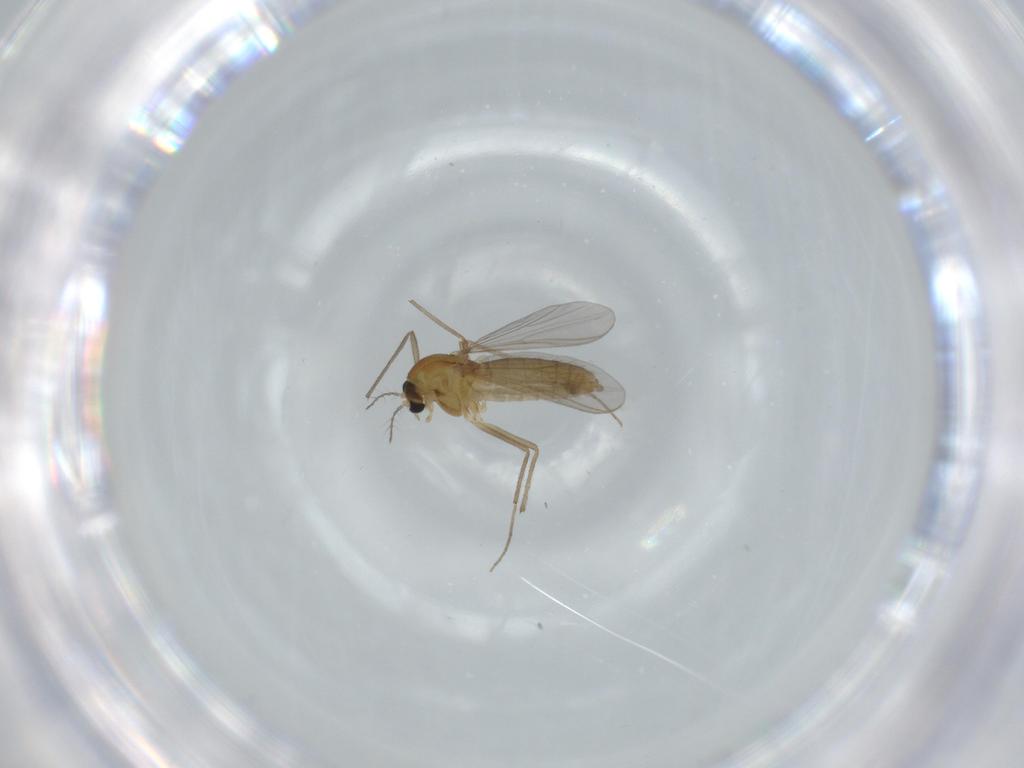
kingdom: Animalia
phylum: Arthropoda
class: Insecta
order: Diptera
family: Chironomidae
